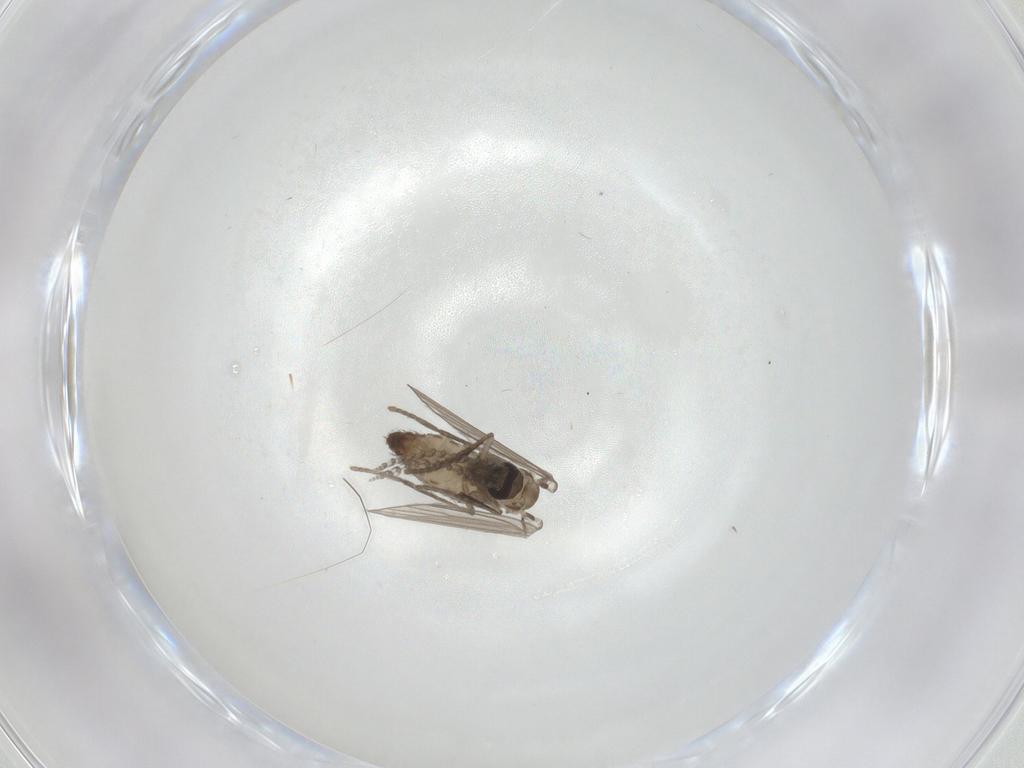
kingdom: Animalia
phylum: Arthropoda
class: Insecta
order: Diptera
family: Psychodidae
